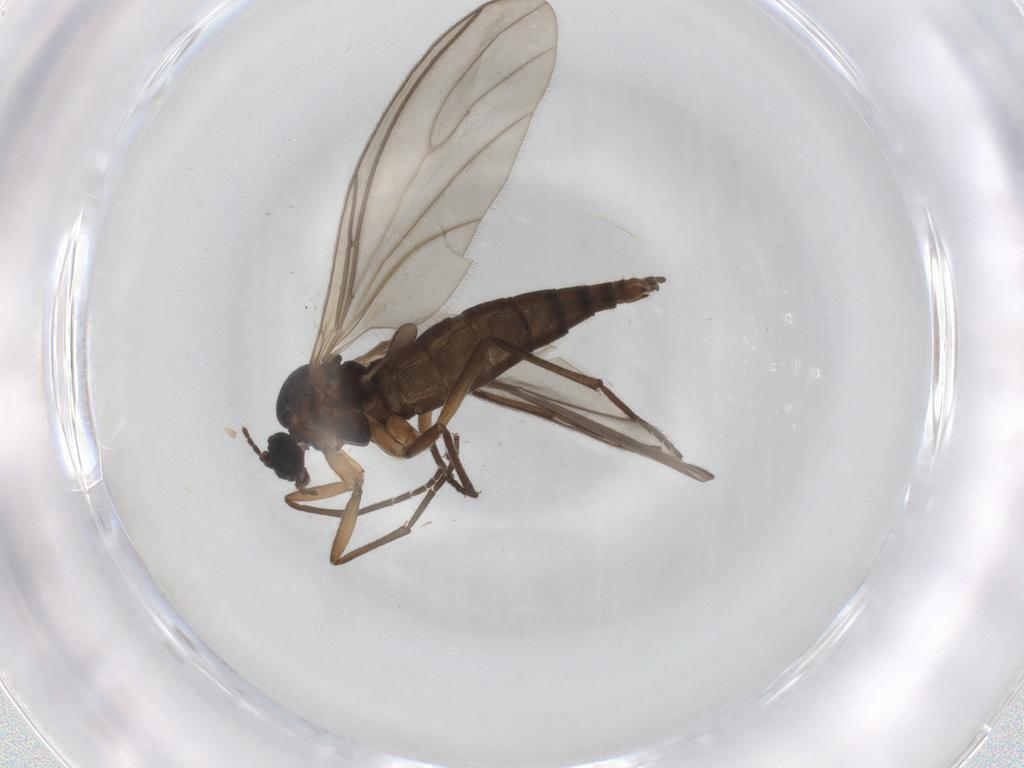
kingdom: Animalia
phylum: Arthropoda
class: Insecta
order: Diptera
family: Sciaridae
